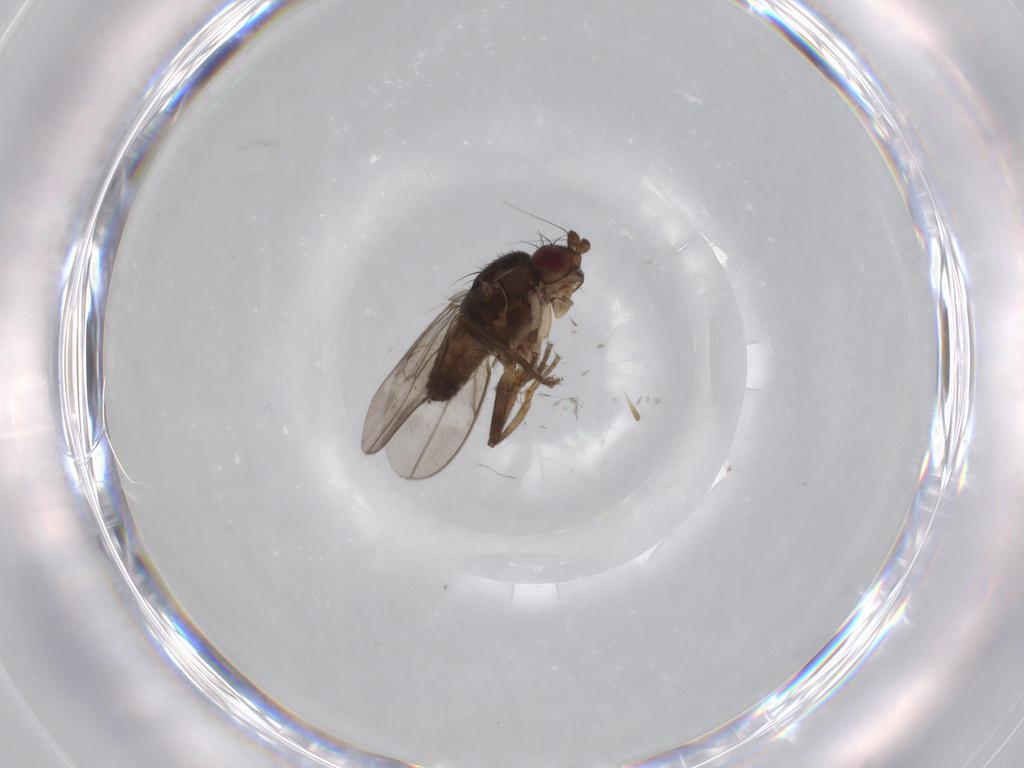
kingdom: Animalia
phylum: Arthropoda
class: Insecta
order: Diptera
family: Sphaeroceridae
